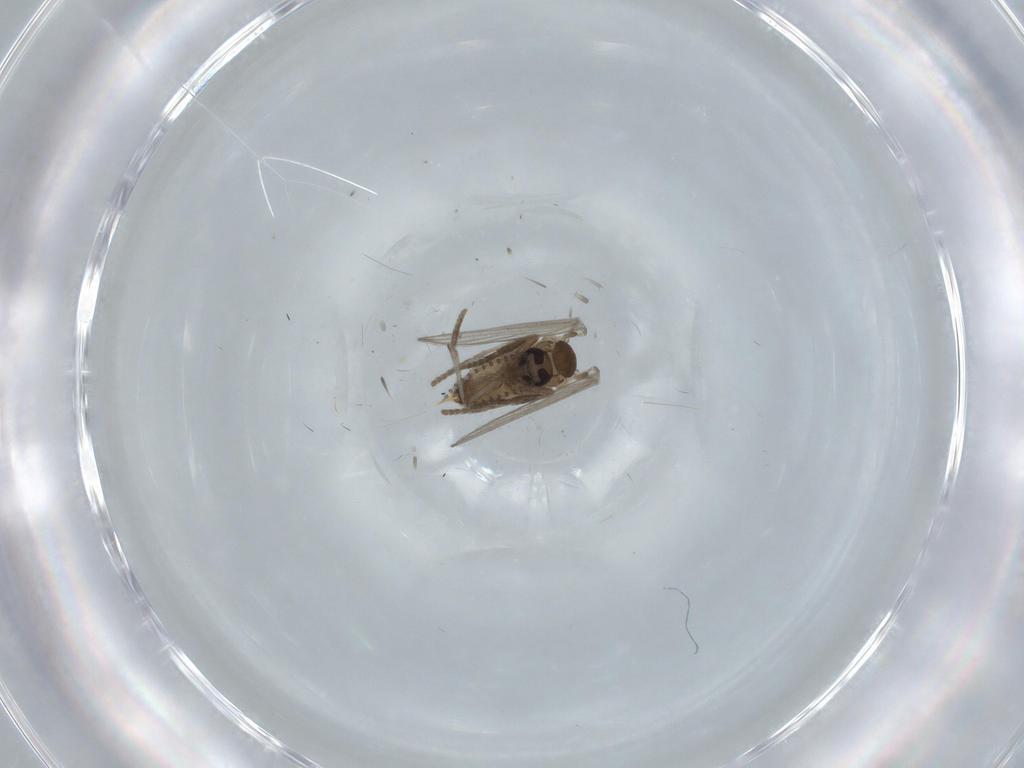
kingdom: Animalia
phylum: Arthropoda
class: Insecta
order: Diptera
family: Psychodidae
